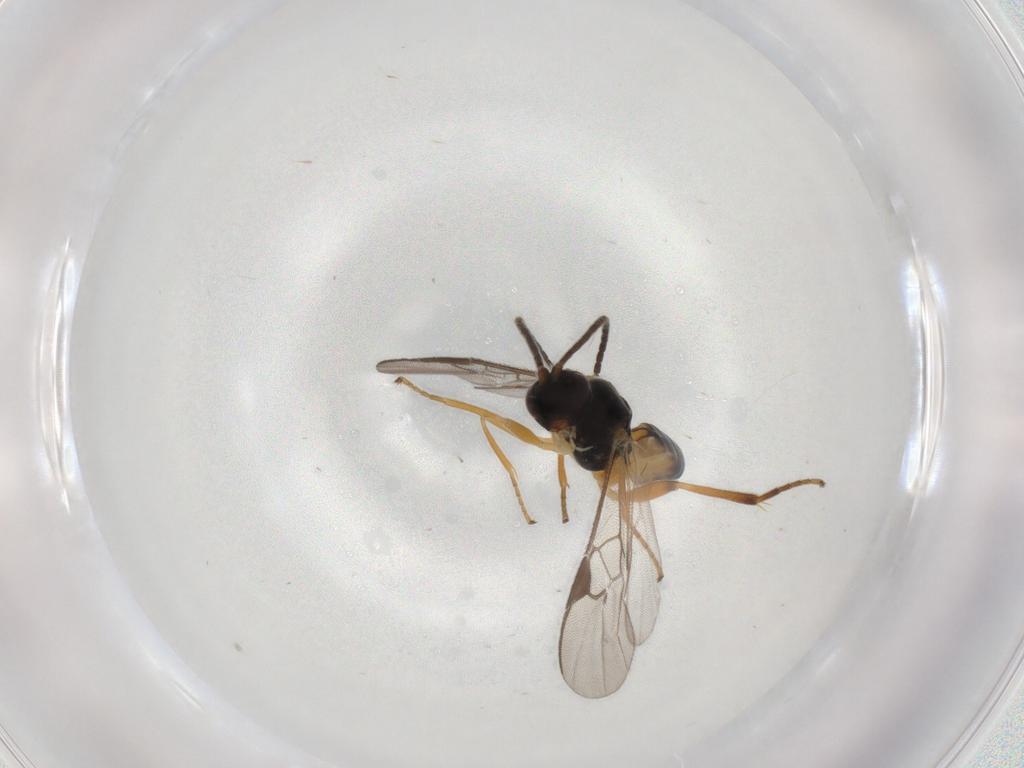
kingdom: Animalia
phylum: Arthropoda
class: Insecta
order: Hymenoptera
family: Braconidae
